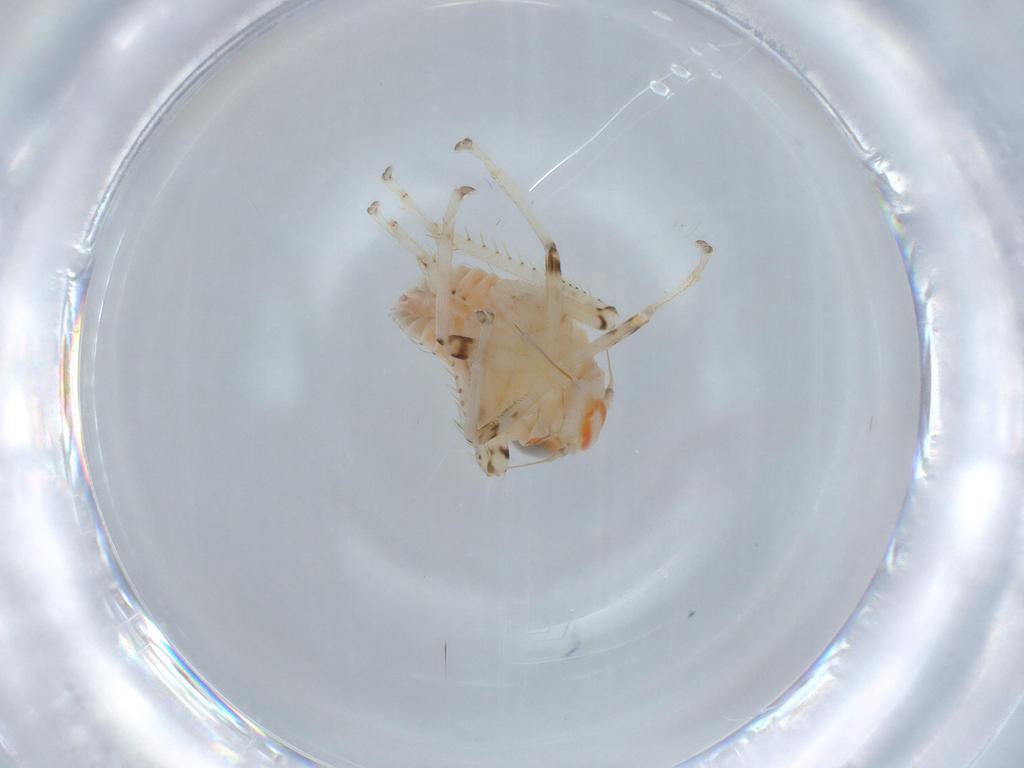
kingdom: Animalia
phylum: Arthropoda
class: Insecta
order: Hemiptera
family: Cicadellidae
